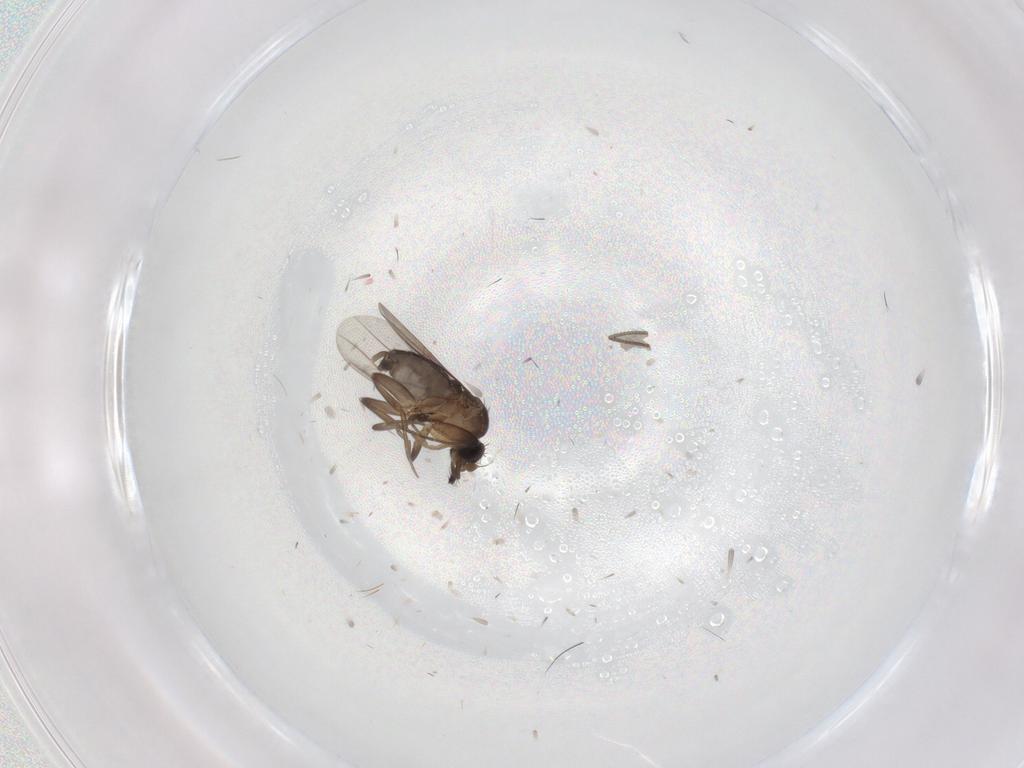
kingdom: Animalia
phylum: Arthropoda
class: Insecta
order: Diptera
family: Phoridae
